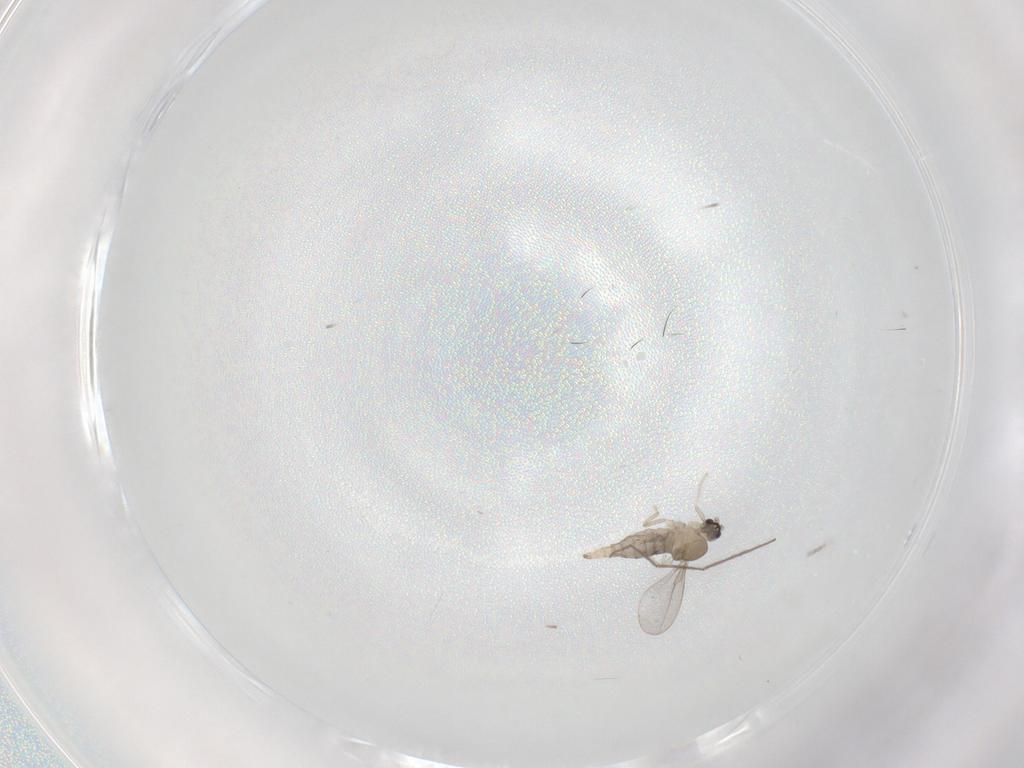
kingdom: Animalia
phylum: Arthropoda
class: Insecta
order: Diptera
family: Cecidomyiidae
